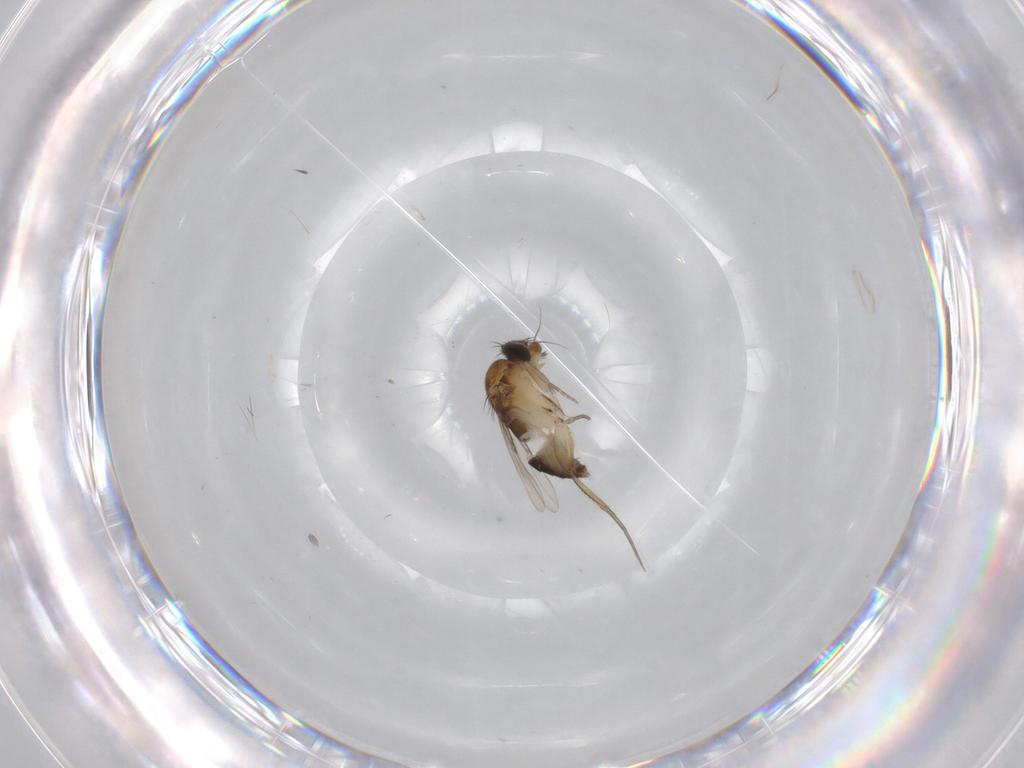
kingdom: Animalia
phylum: Arthropoda
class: Insecta
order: Diptera
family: Phoridae
